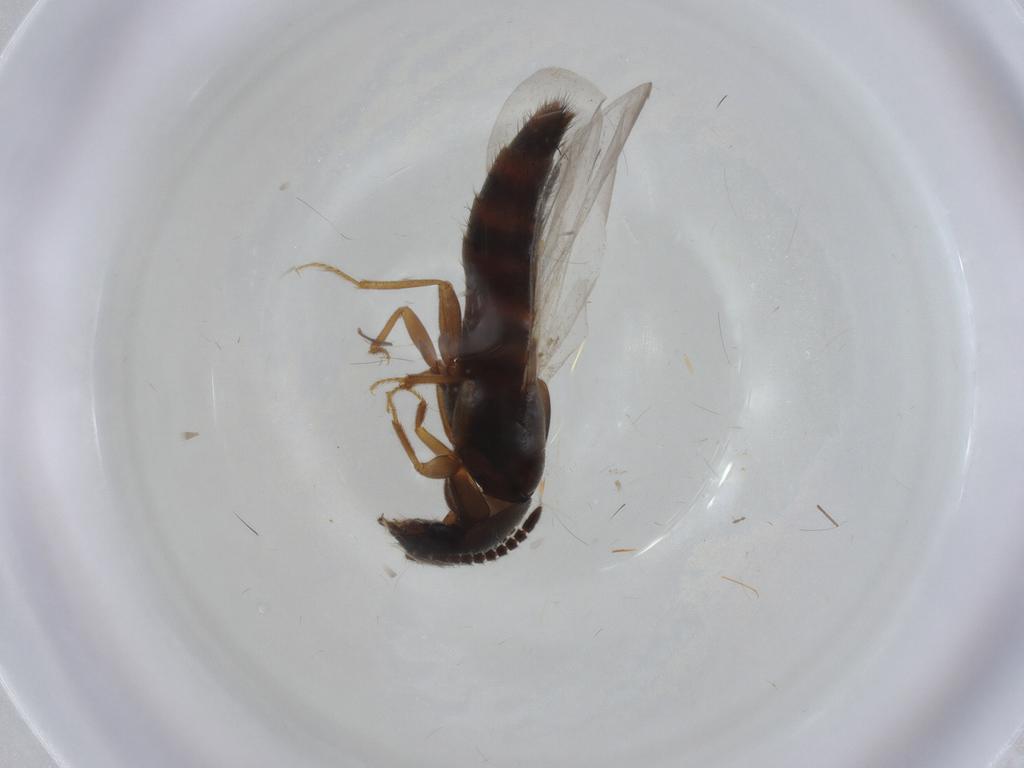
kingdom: Animalia
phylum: Arthropoda
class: Insecta
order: Coleoptera
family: Staphylinidae
